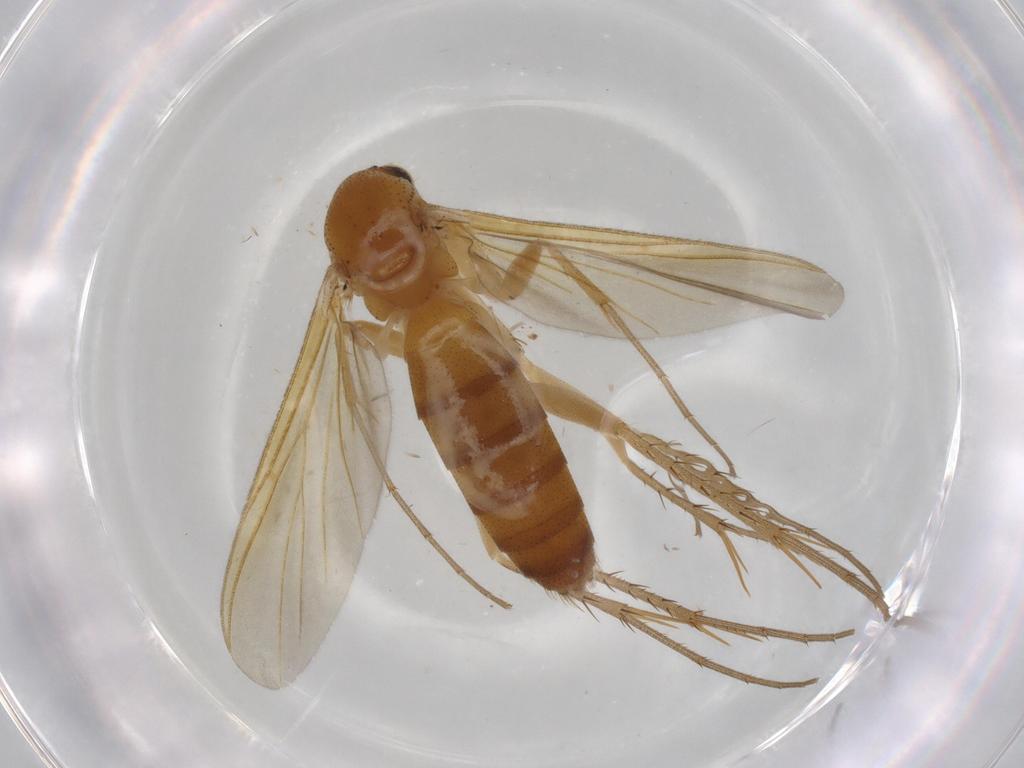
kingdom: Animalia
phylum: Arthropoda
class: Insecta
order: Diptera
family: Mycetophilidae
